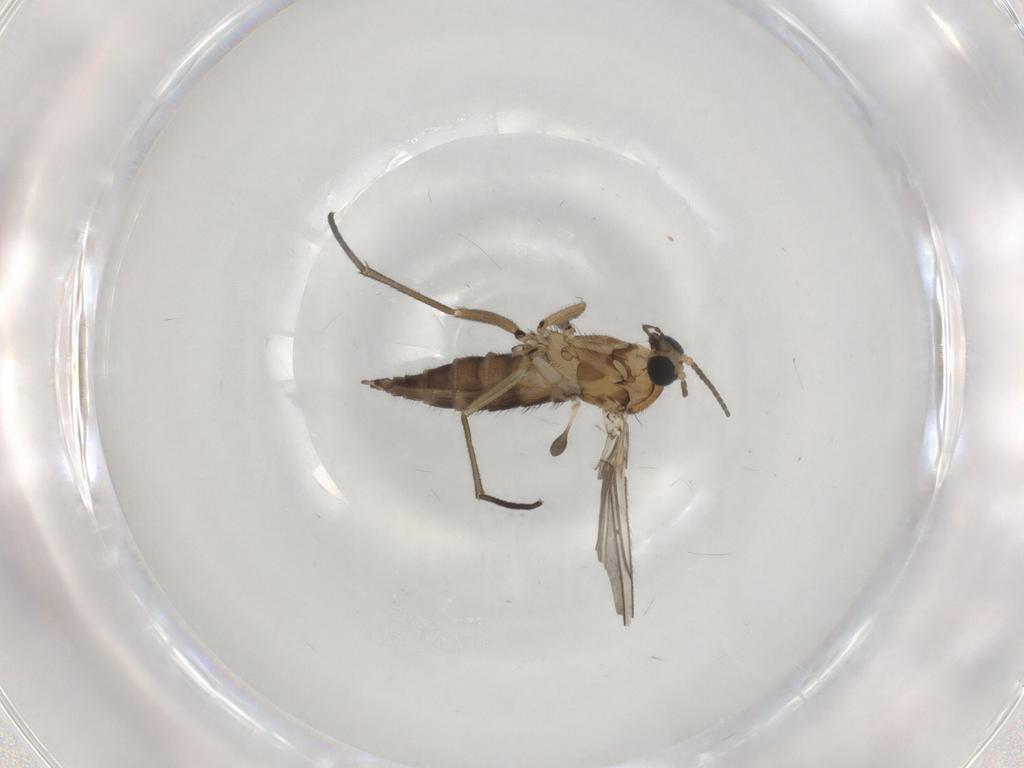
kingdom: Animalia
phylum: Arthropoda
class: Insecta
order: Diptera
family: Sciaridae
